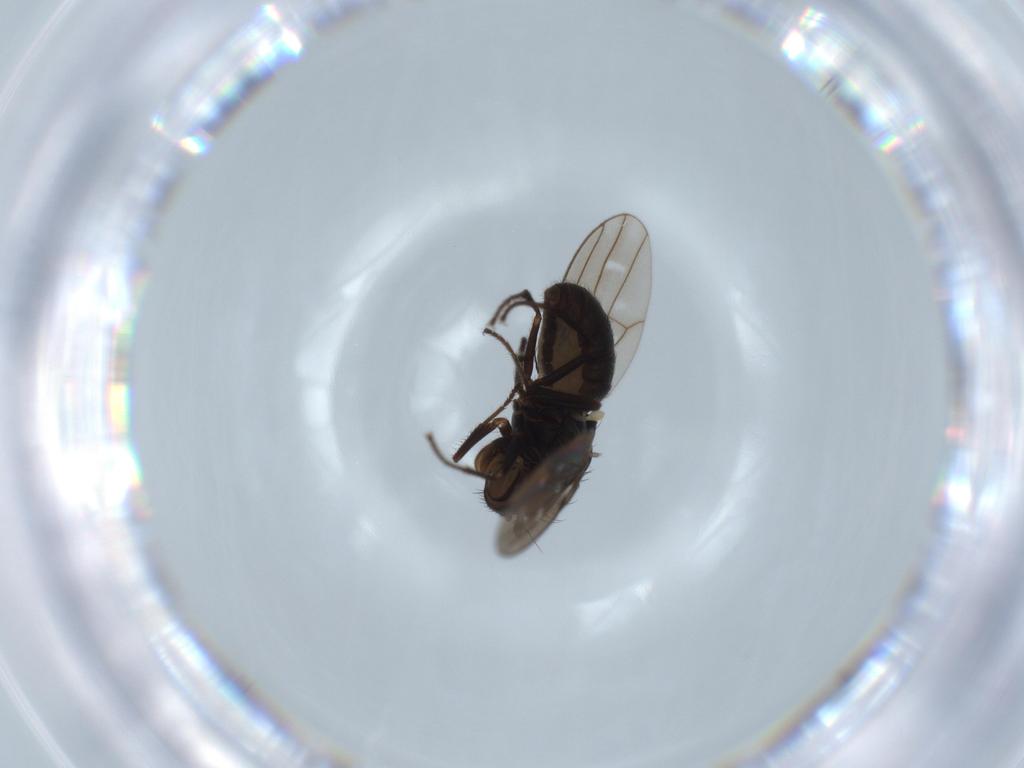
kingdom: Animalia
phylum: Arthropoda
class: Insecta
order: Diptera
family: Ephydridae
